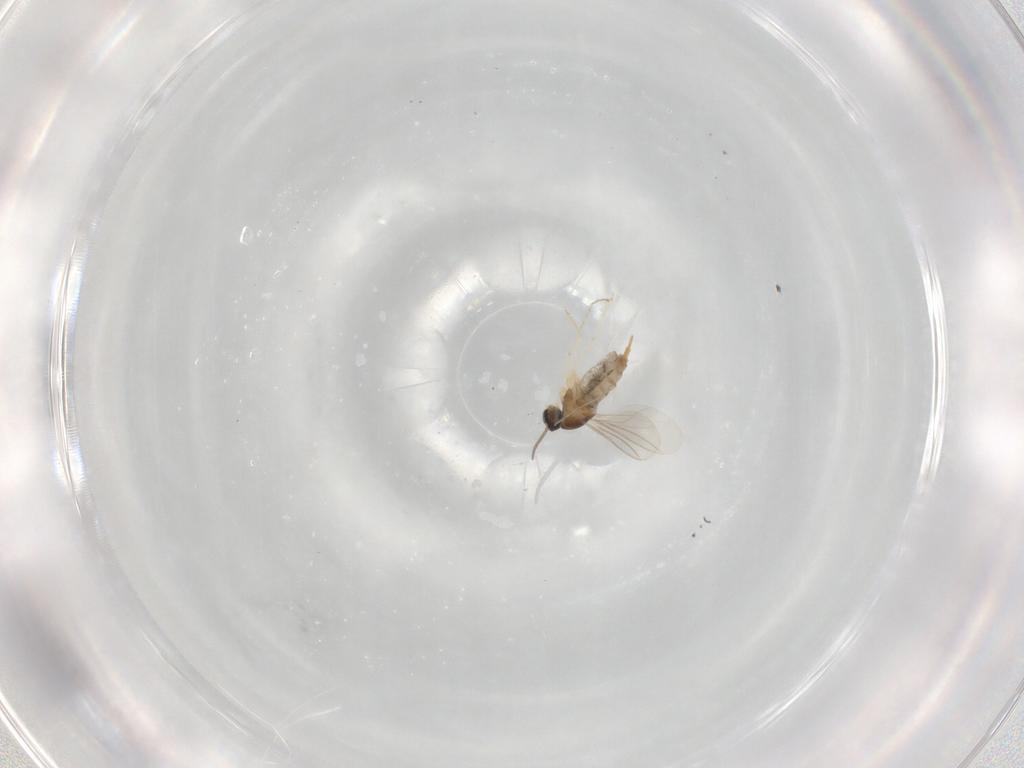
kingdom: Animalia
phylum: Arthropoda
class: Insecta
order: Diptera
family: Cecidomyiidae
